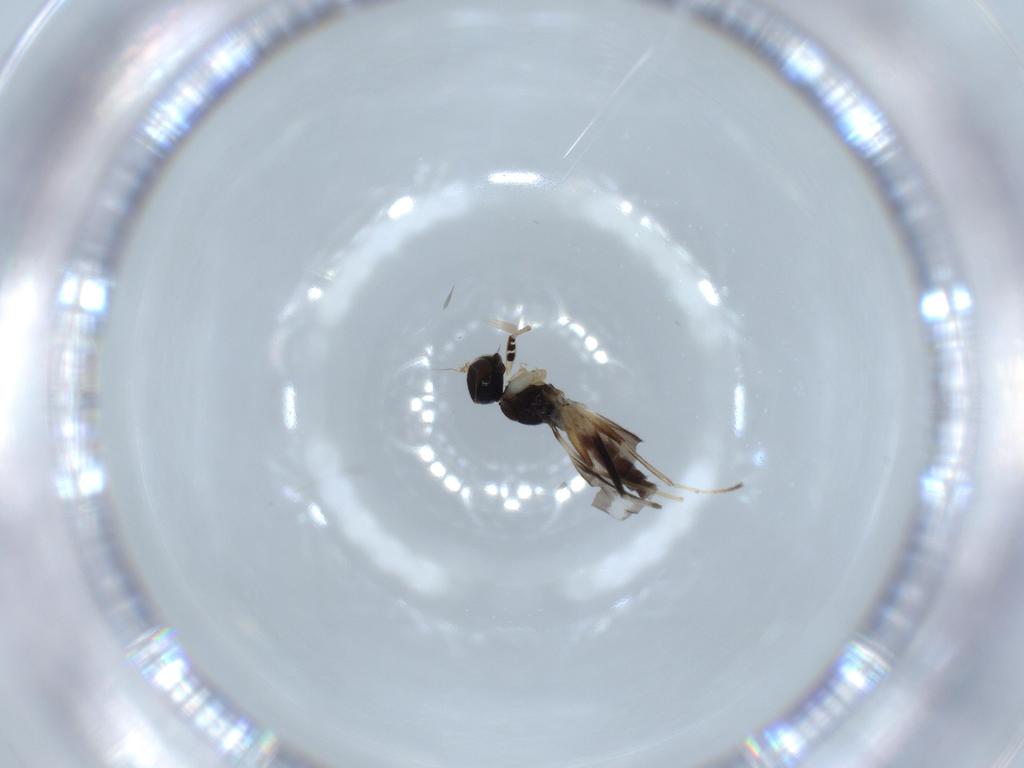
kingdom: Animalia
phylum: Arthropoda
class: Insecta
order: Diptera
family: Hybotidae
